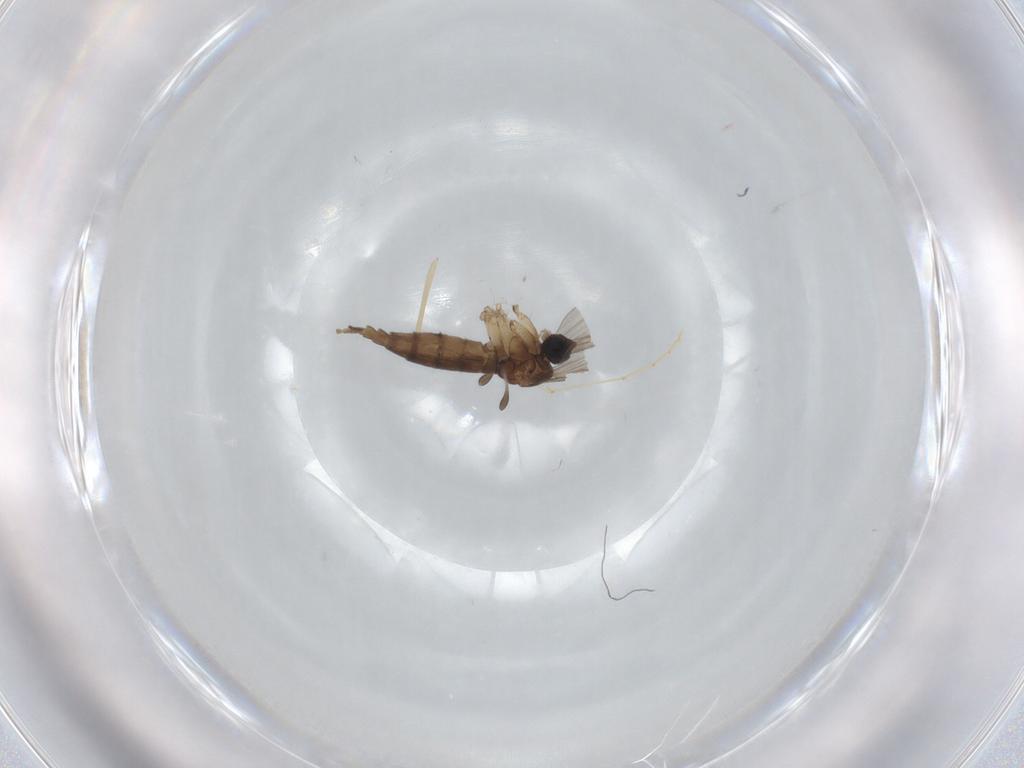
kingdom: Animalia
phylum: Arthropoda
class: Insecta
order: Diptera
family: Psychodidae
